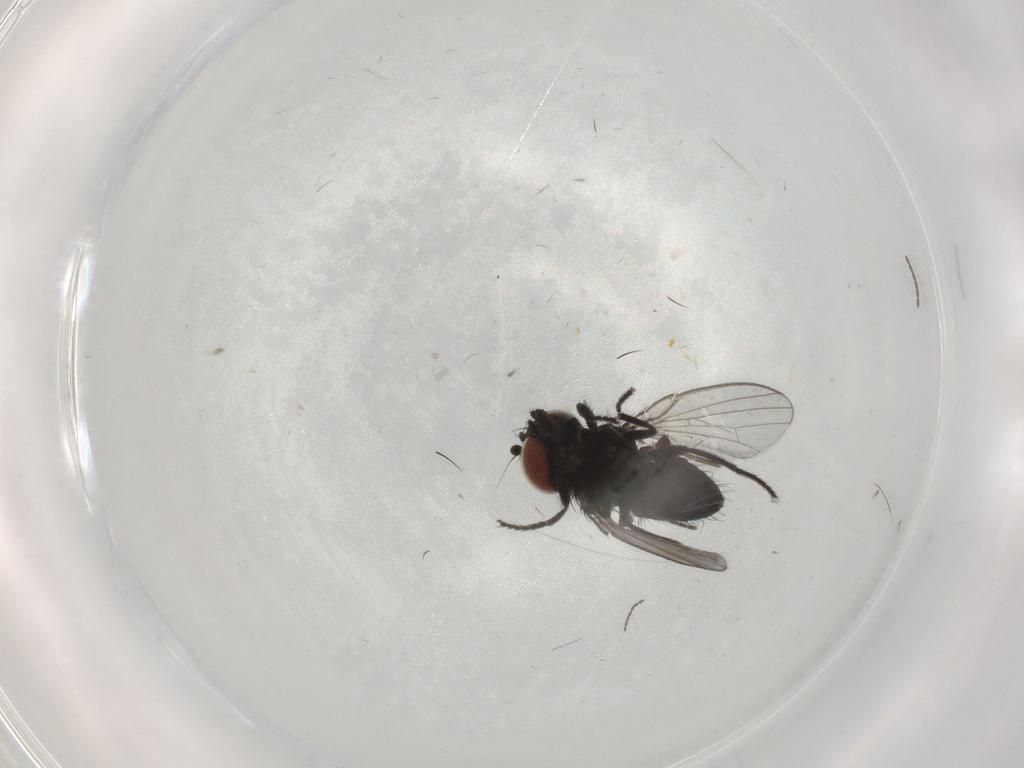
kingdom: Animalia
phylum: Arthropoda
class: Insecta
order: Diptera
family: Milichiidae
